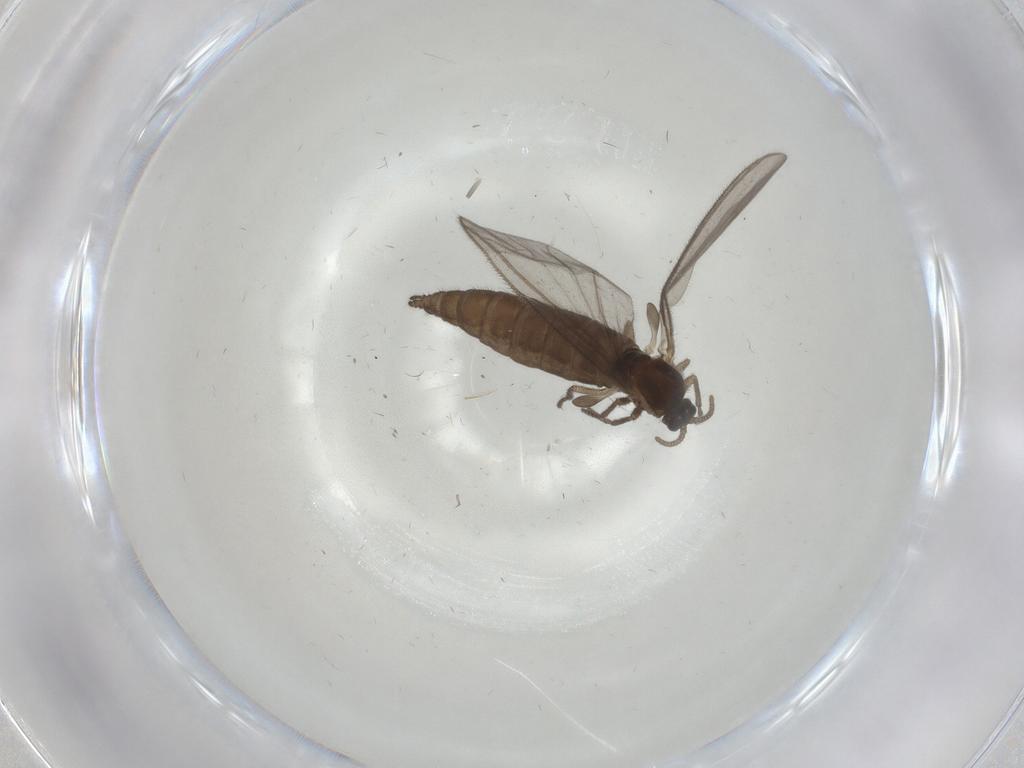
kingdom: Animalia
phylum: Arthropoda
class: Insecta
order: Diptera
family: Sciaridae
